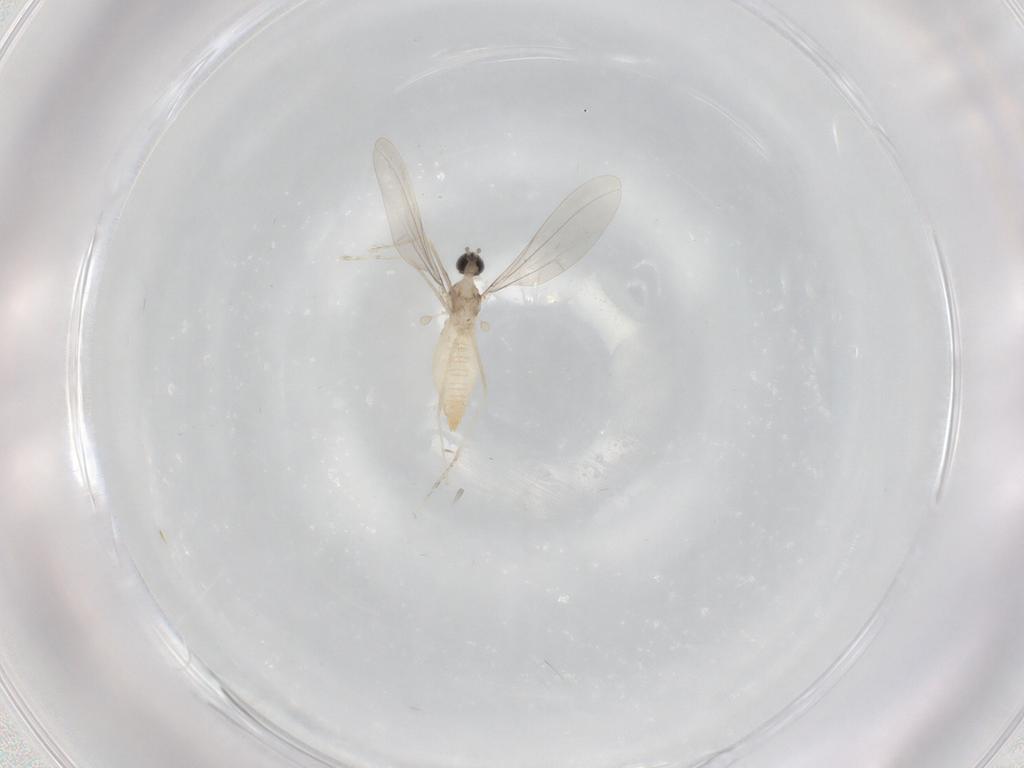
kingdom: Animalia
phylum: Arthropoda
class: Insecta
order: Diptera
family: Cecidomyiidae
